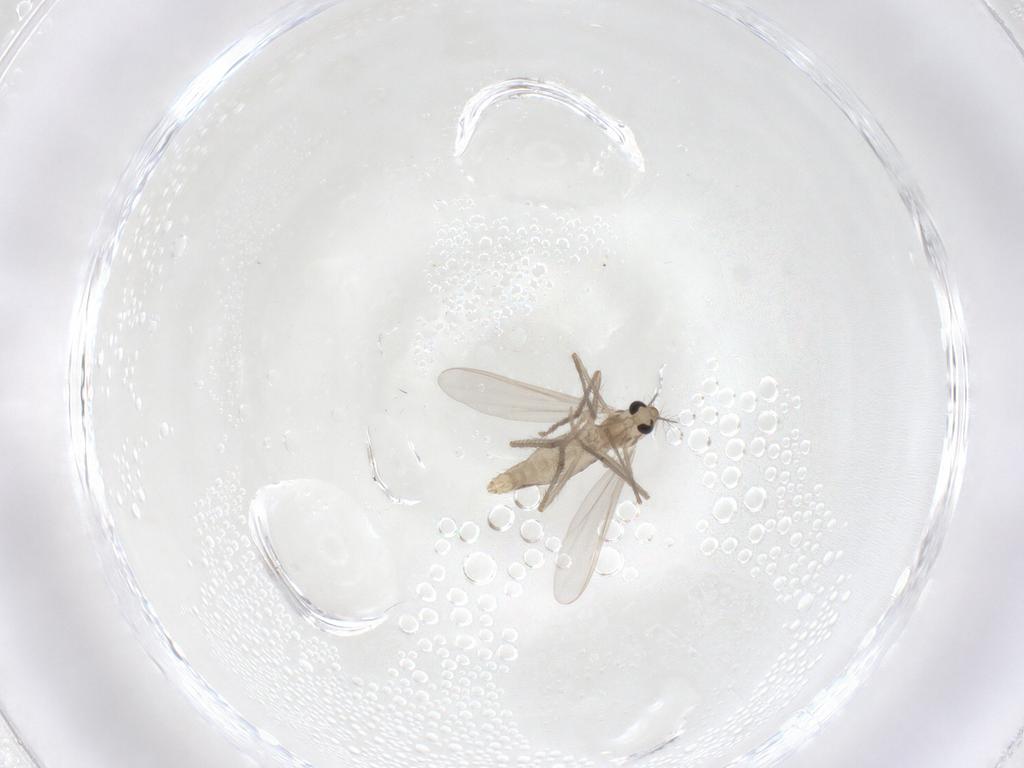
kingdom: Animalia
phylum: Arthropoda
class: Insecta
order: Diptera
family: Chironomidae
